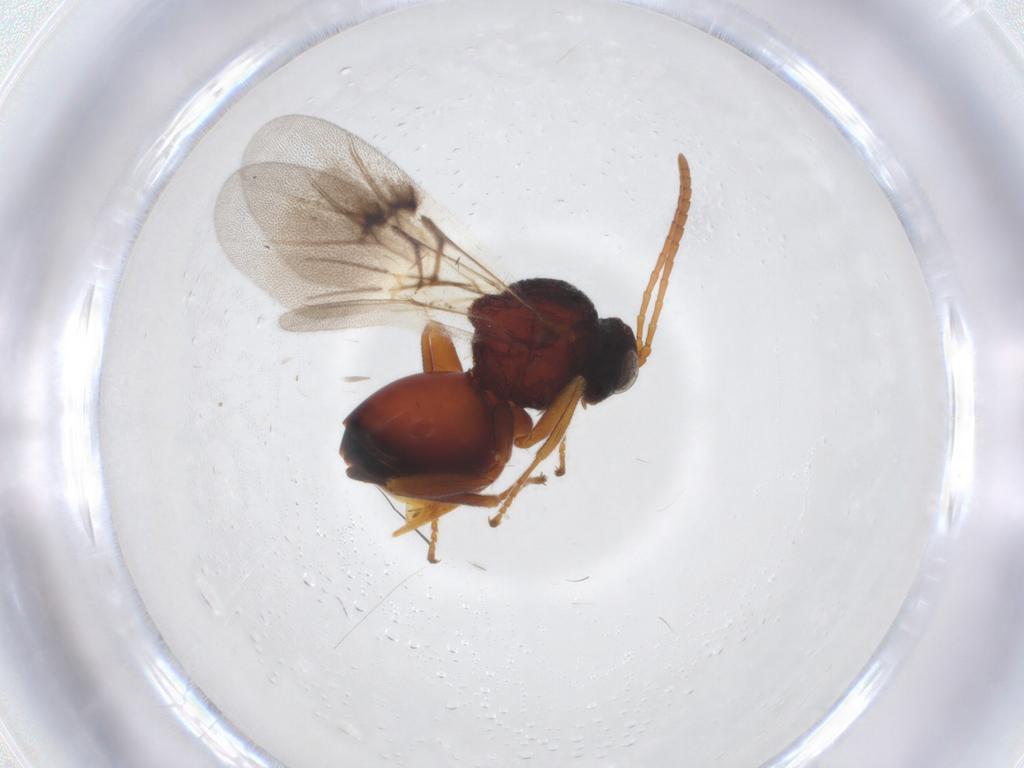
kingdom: Animalia
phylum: Arthropoda
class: Insecta
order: Hymenoptera
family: Cynipidae
